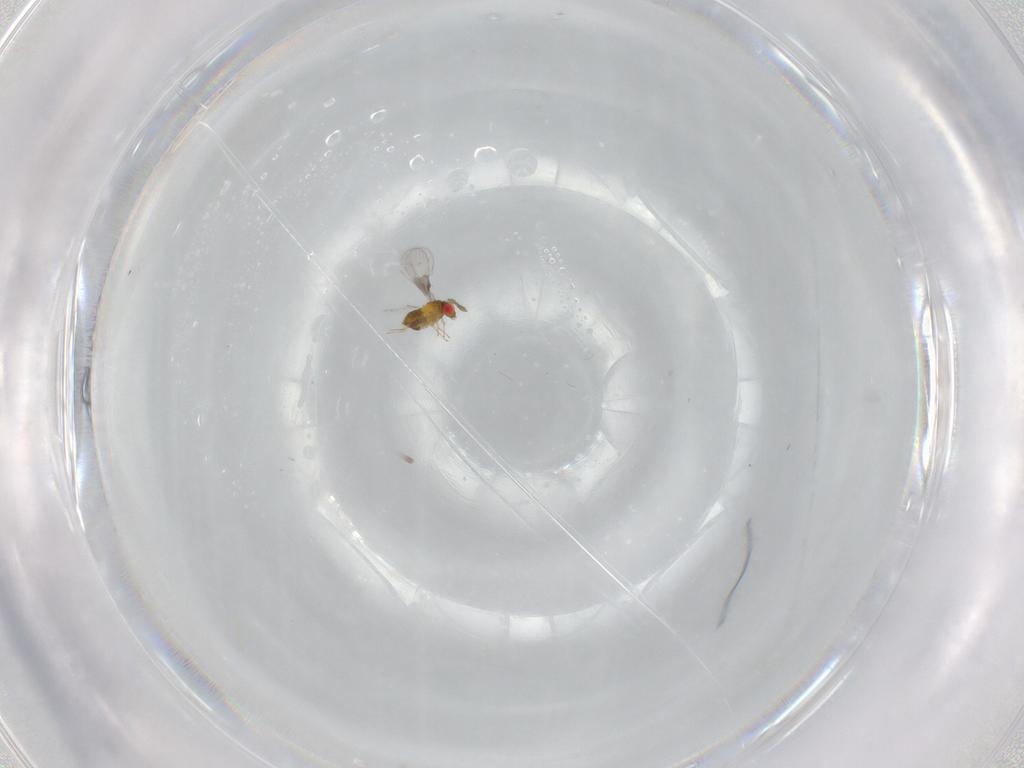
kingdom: Animalia
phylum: Arthropoda
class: Insecta
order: Hymenoptera
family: Trichogrammatidae
